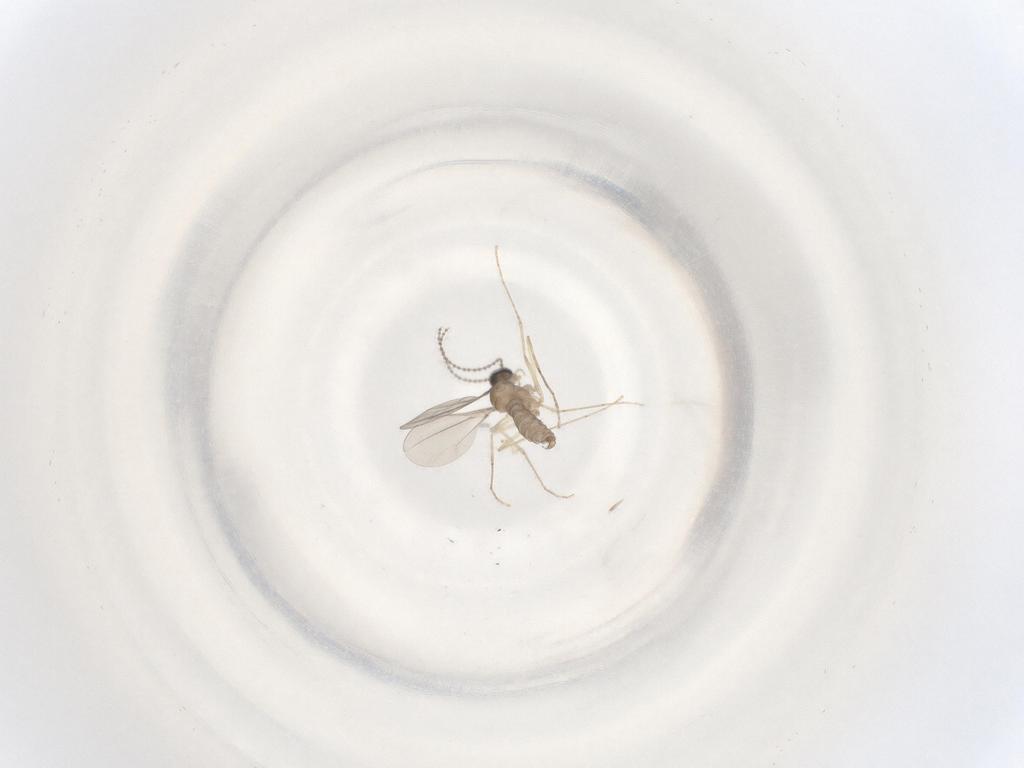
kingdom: Animalia
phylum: Arthropoda
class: Insecta
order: Diptera
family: Cecidomyiidae
